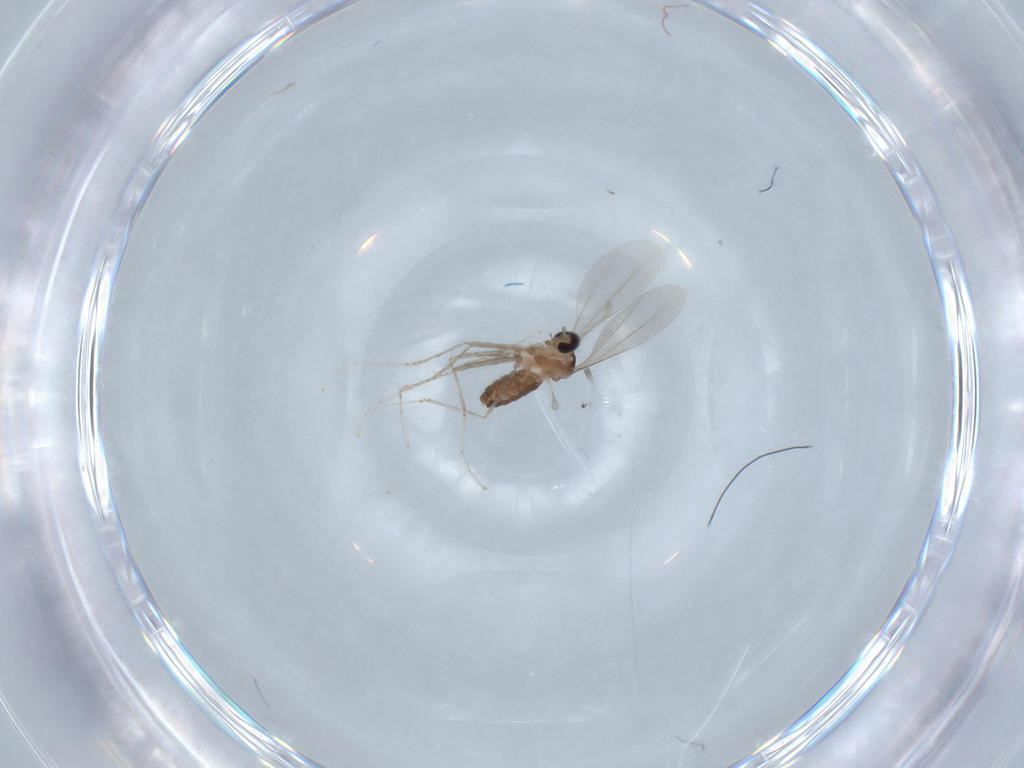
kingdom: Animalia
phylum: Arthropoda
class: Insecta
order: Diptera
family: Cecidomyiidae
